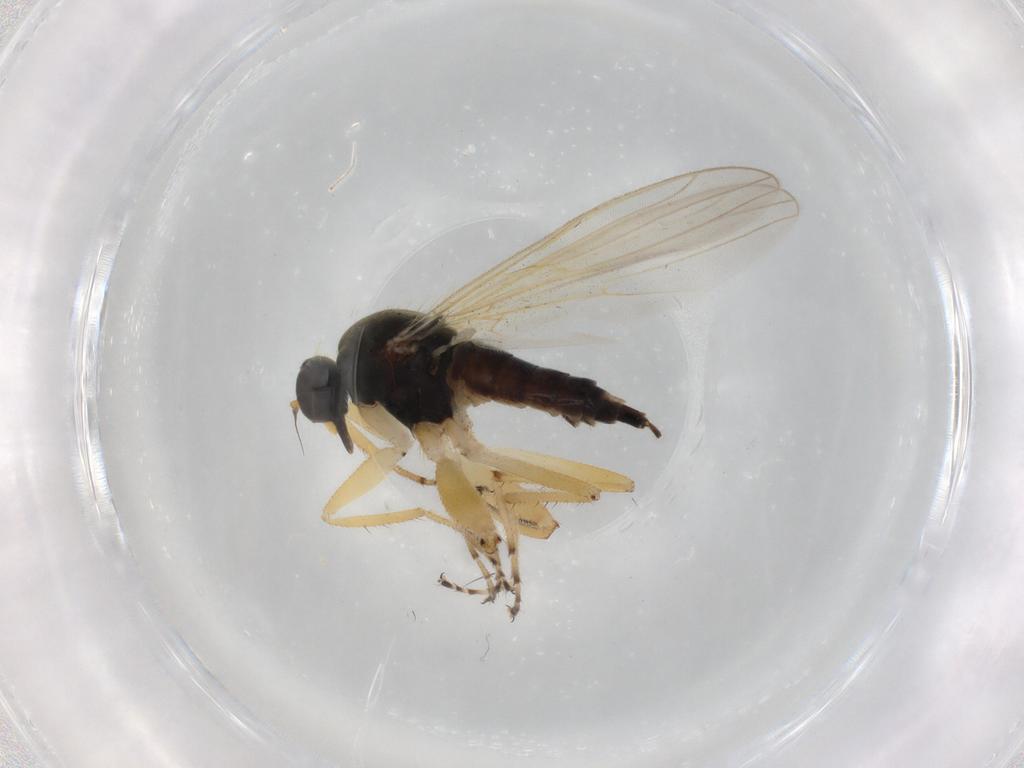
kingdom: Animalia
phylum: Arthropoda
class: Insecta
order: Diptera
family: Hybotidae
